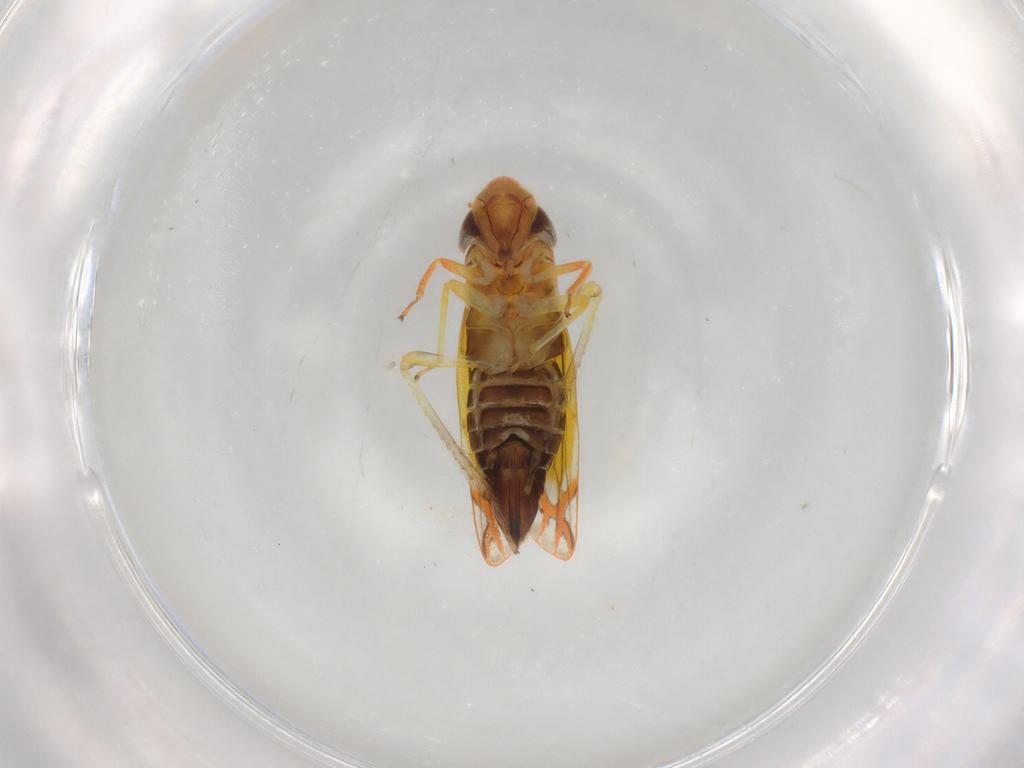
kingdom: Animalia
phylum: Arthropoda
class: Insecta
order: Hemiptera
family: Cicadellidae
